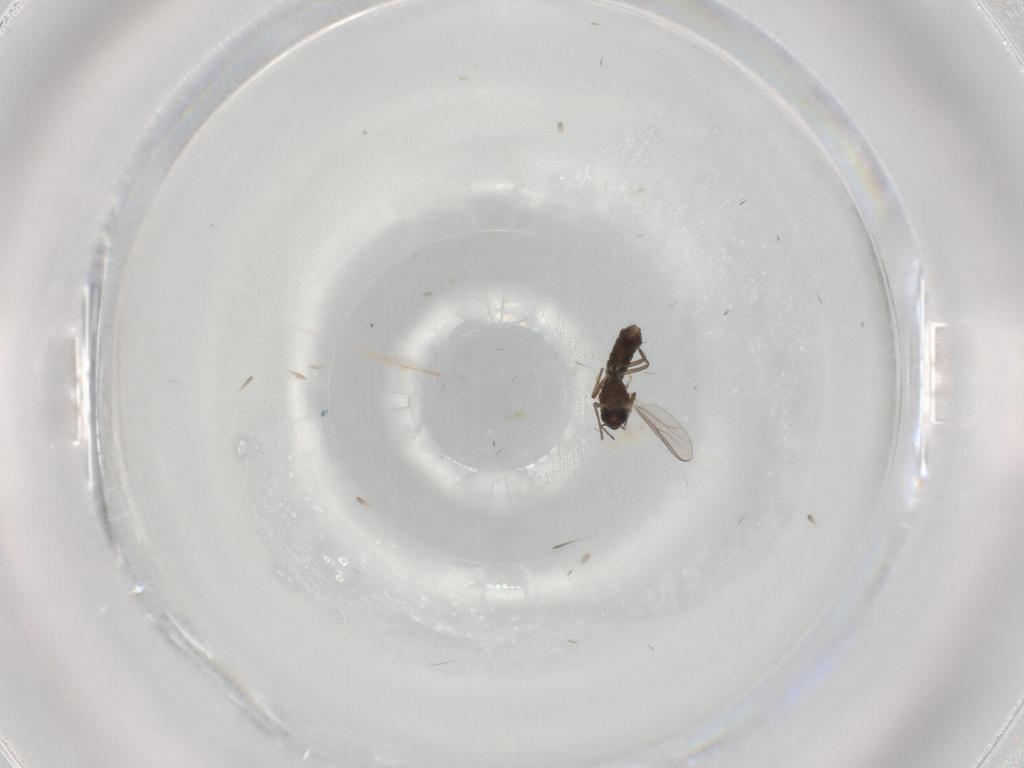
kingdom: Animalia
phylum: Arthropoda
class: Insecta
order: Diptera
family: Chironomidae
